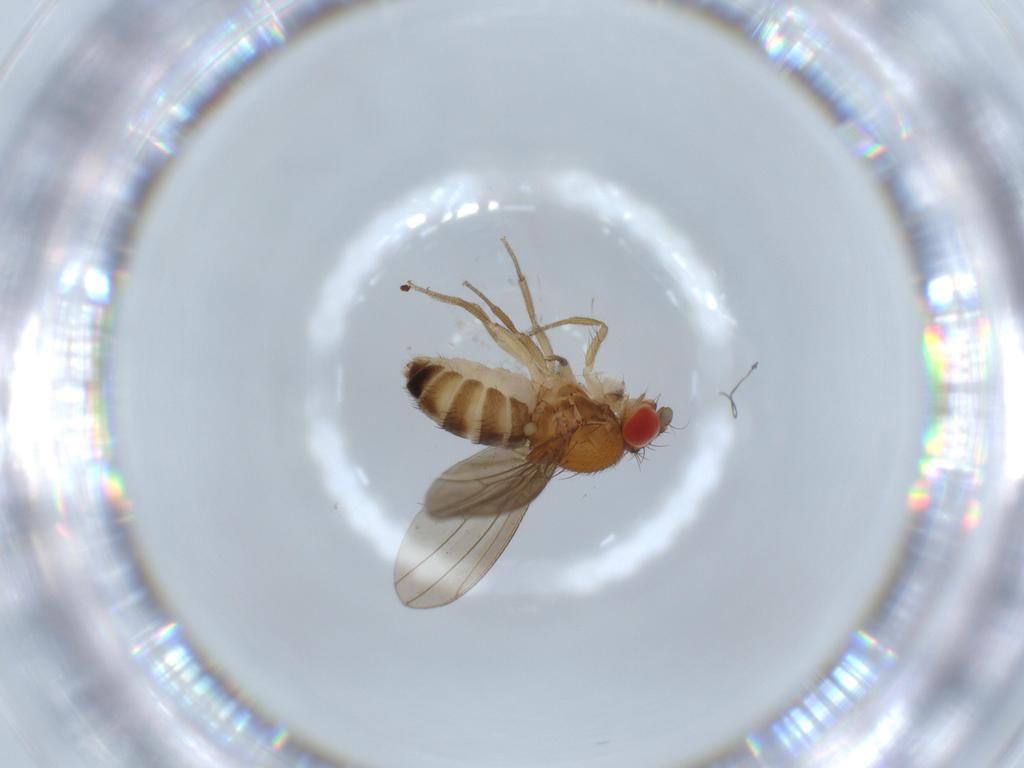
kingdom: Animalia
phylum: Arthropoda
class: Insecta
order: Diptera
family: Drosophilidae
